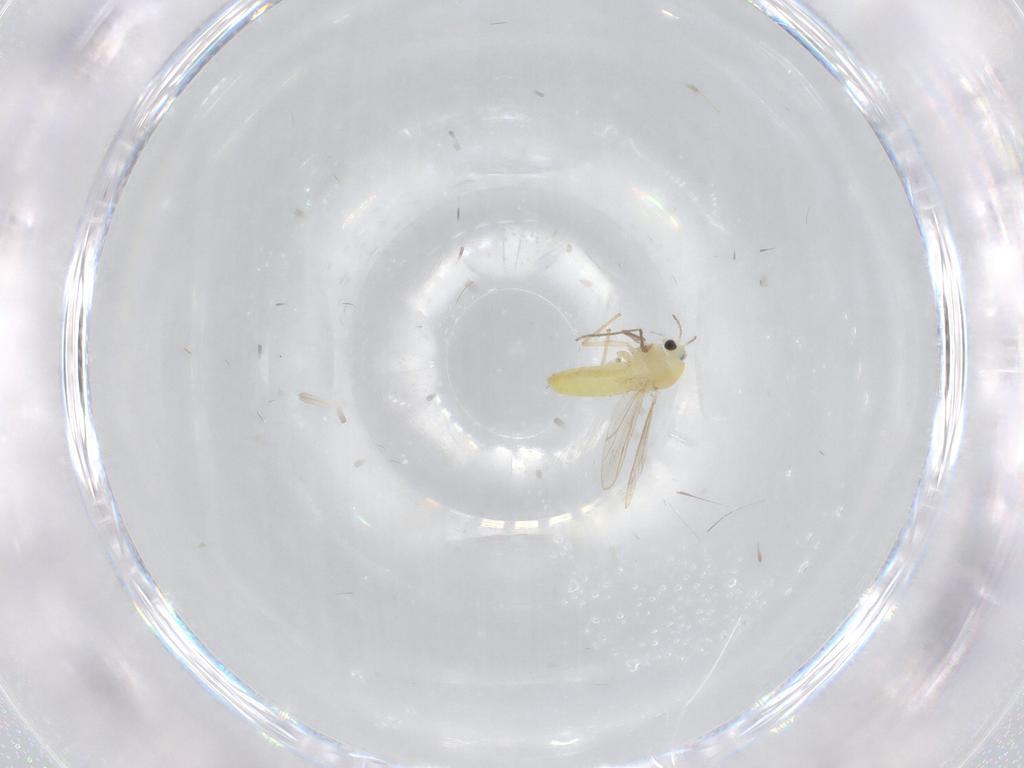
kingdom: Animalia
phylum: Arthropoda
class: Insecta
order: Diptera
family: Chironomidae
